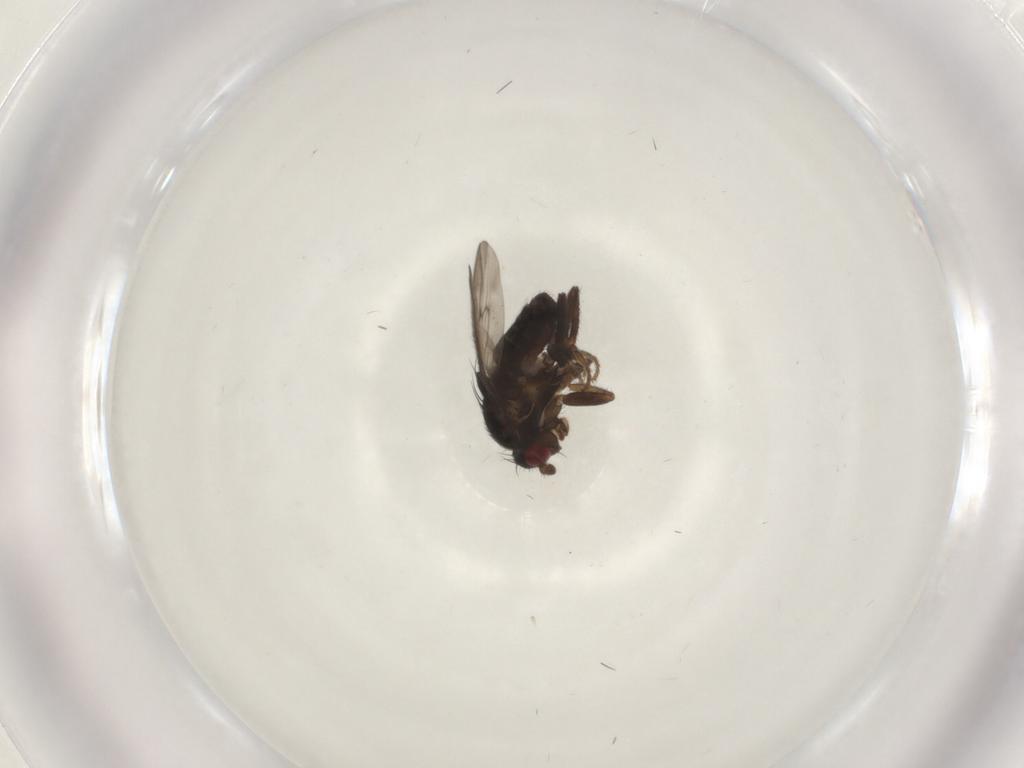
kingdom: Animalia
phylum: Arthropoda
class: Insecta
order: Diptera
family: Sphaeroceridae
